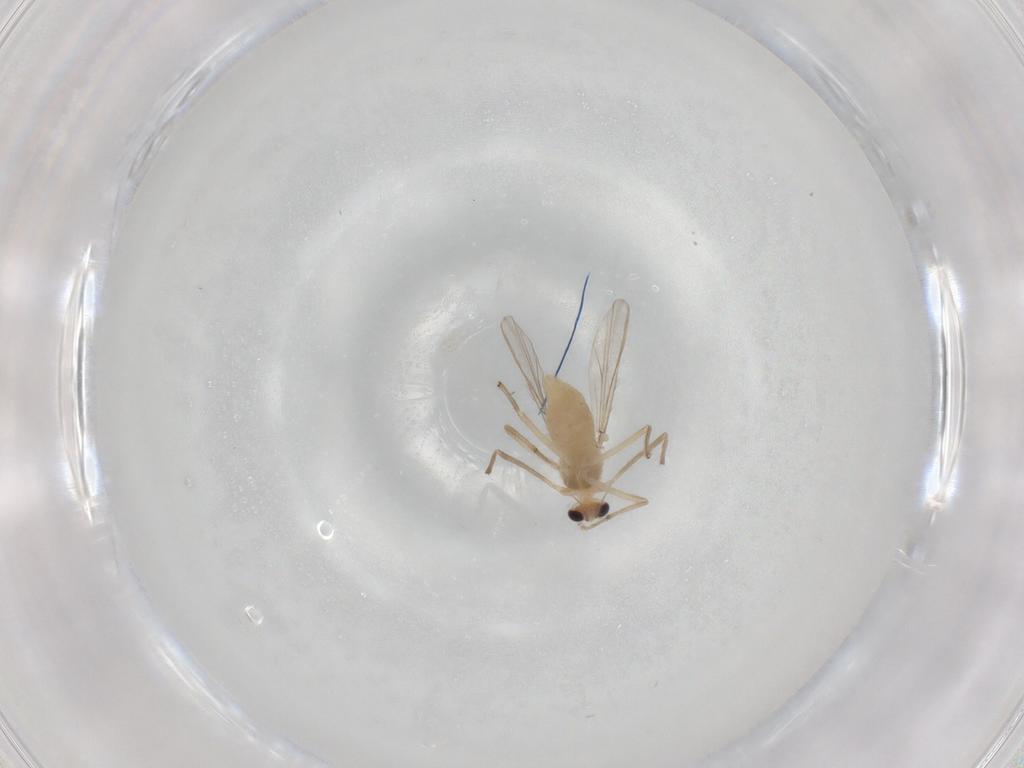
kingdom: Animalia
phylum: Arthropoda
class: Insecta
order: Diptera
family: Chironomidae
